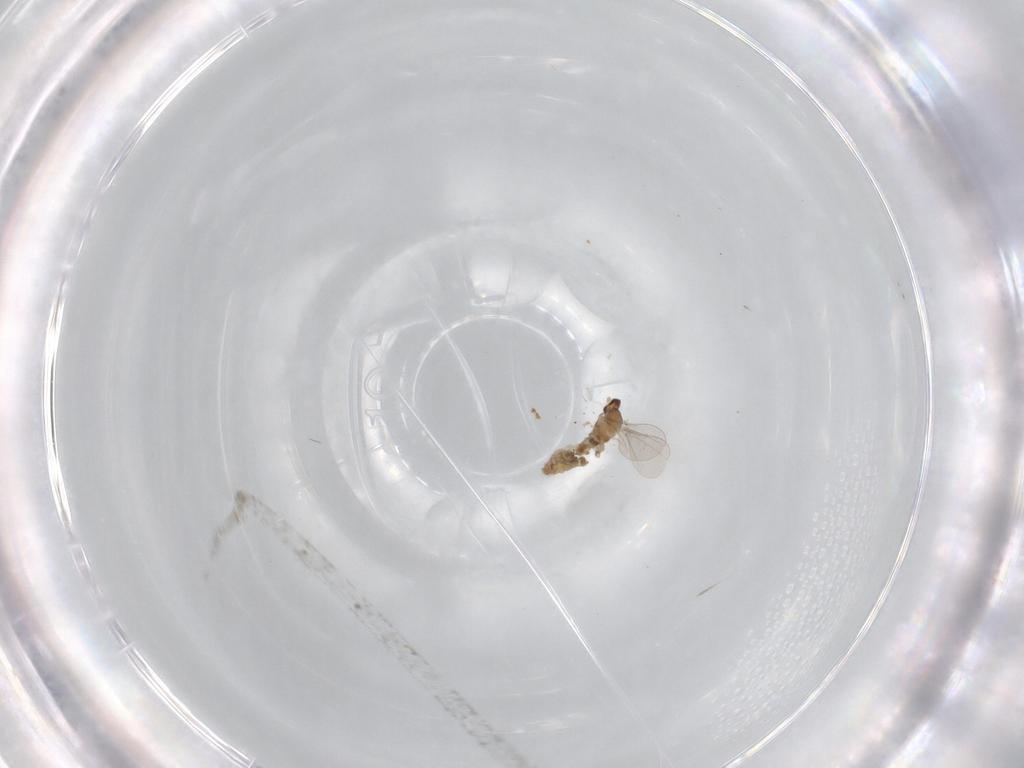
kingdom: Animalia
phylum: Arthropoda
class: Insecta
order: Diptera
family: Cecidomyiidae
